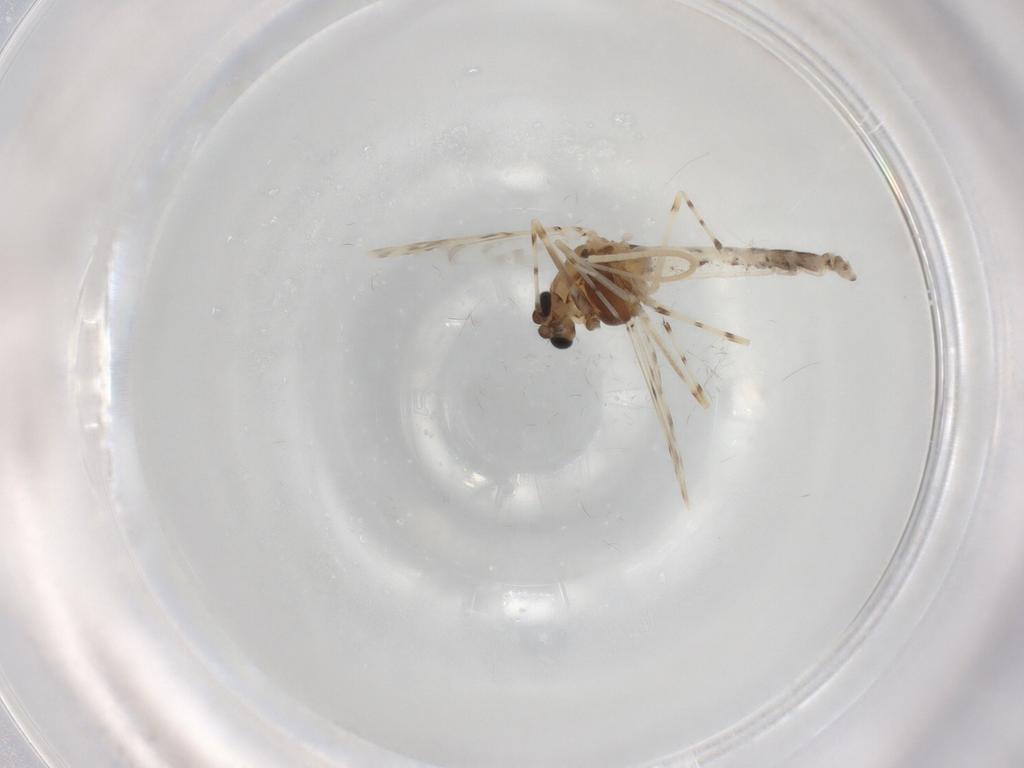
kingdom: Animalia
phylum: Arthropoda
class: Insecta
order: Diptera
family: Chironomidae
